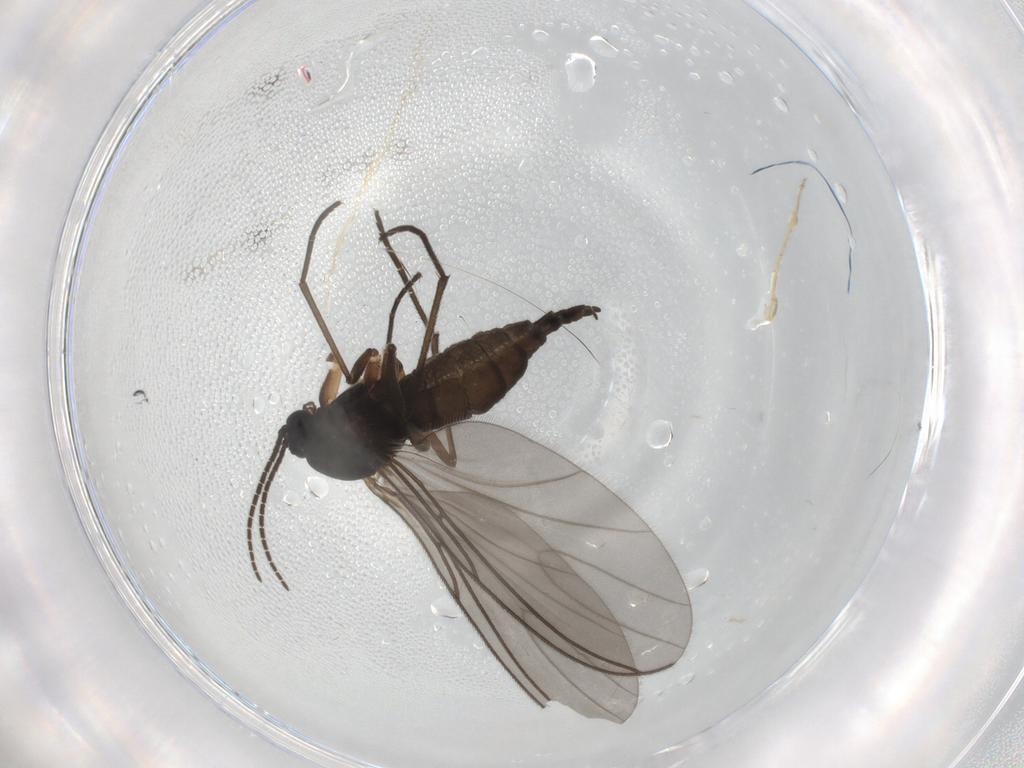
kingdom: Animalia
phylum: Arthropoda
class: Insecta
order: Diptera
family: Sciaridae
